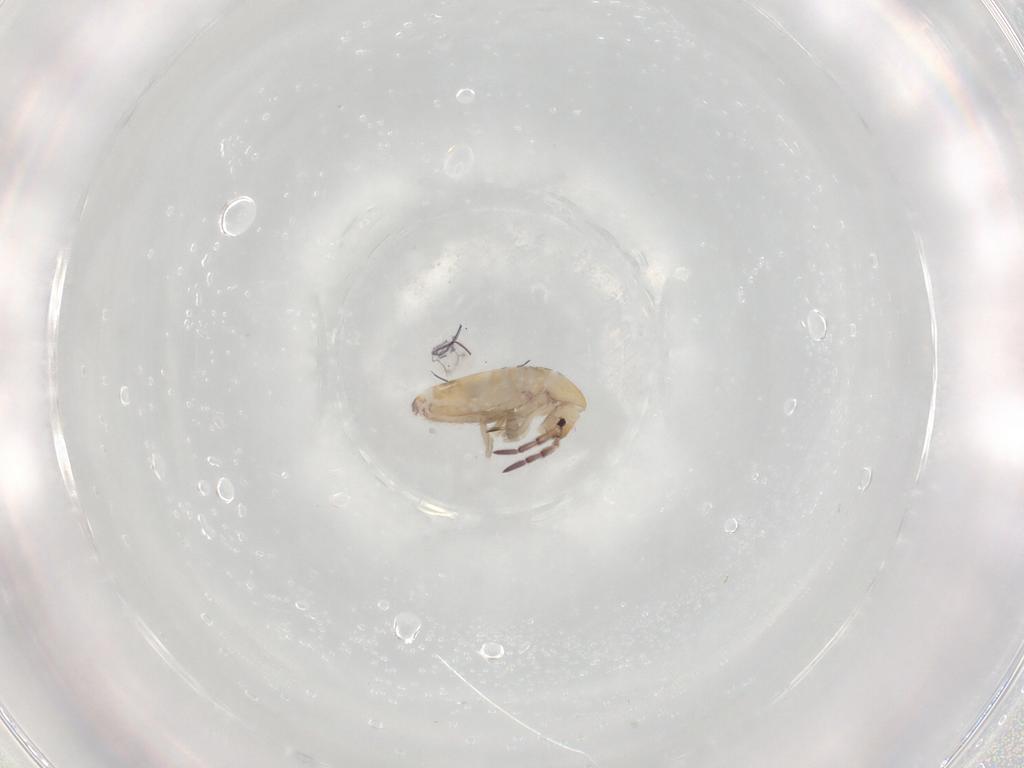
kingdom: Animalia
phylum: Arthropoda
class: Collembola
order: Entomobryomorpha
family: Entomobryidae
